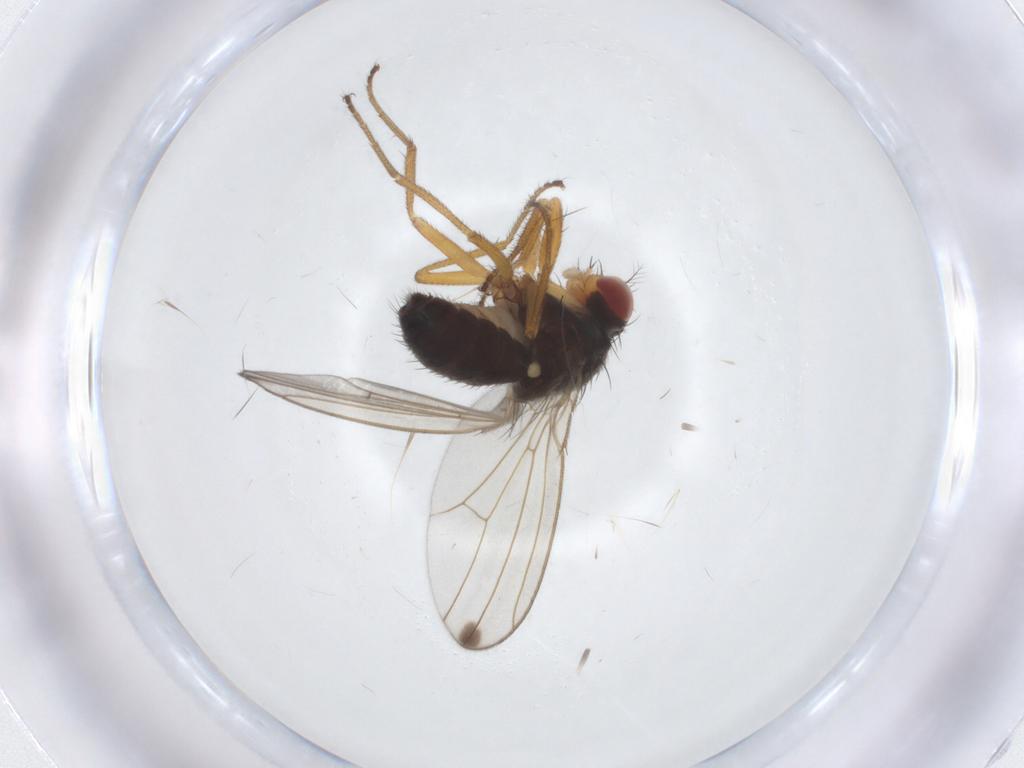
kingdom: Animalia
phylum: Arthropoda
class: Insecta
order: Diptera
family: Drosophilidae
